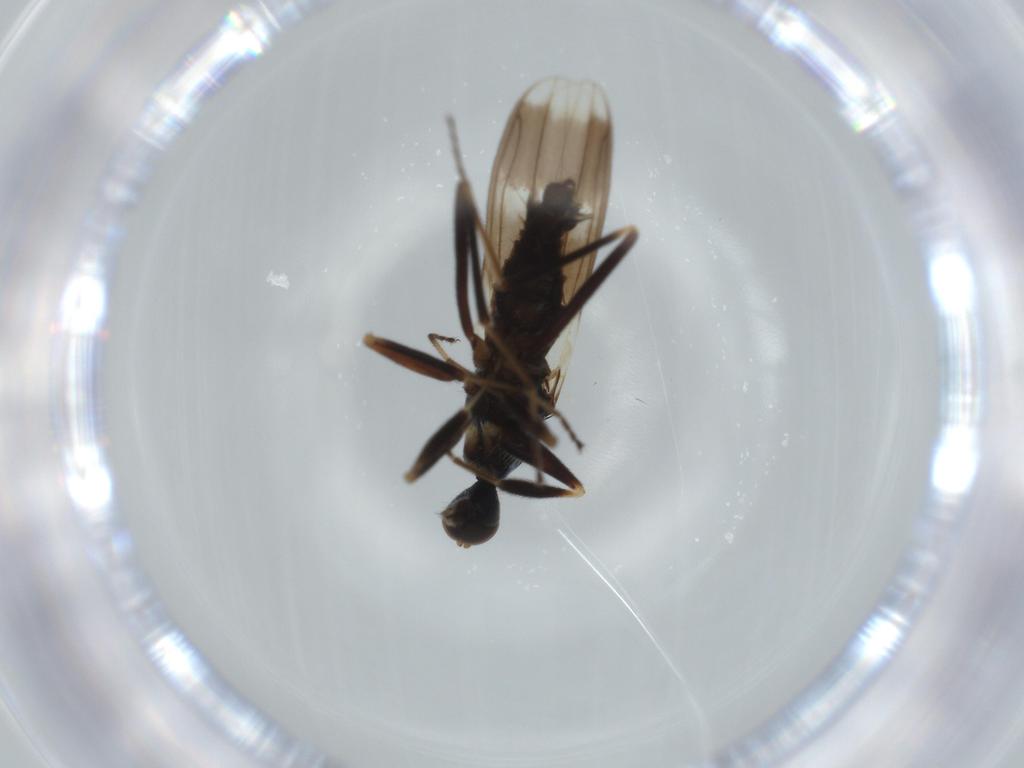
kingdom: Animalia
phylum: Arthropoda
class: Insecta
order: Diptera
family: Hybotidae
